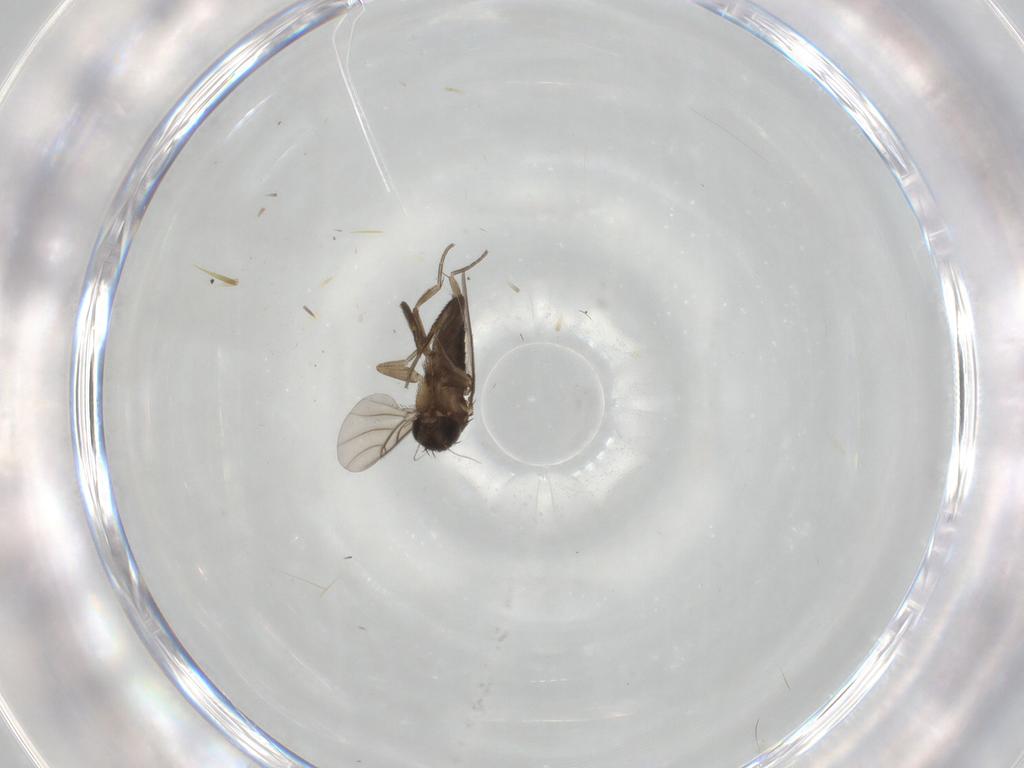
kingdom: Animalia
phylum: Arthropoda
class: Insecta
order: Diptera
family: Phoridae
